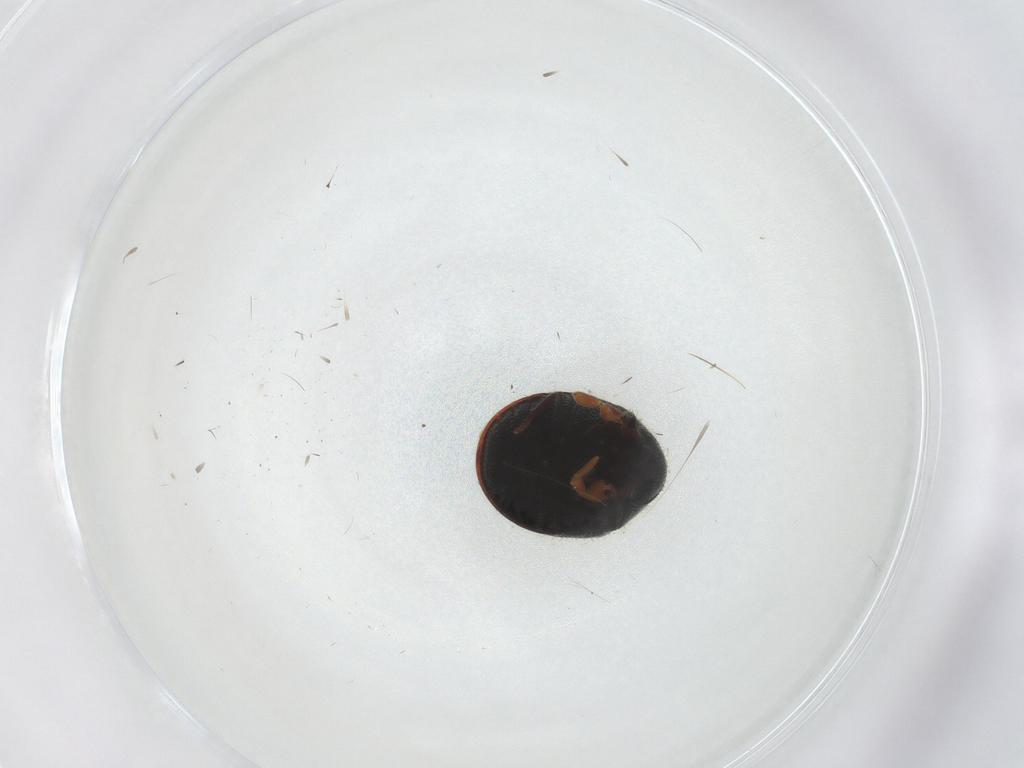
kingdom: Animalia
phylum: Arthropoda
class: Insecta
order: Coleoptera
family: Ptinidae
